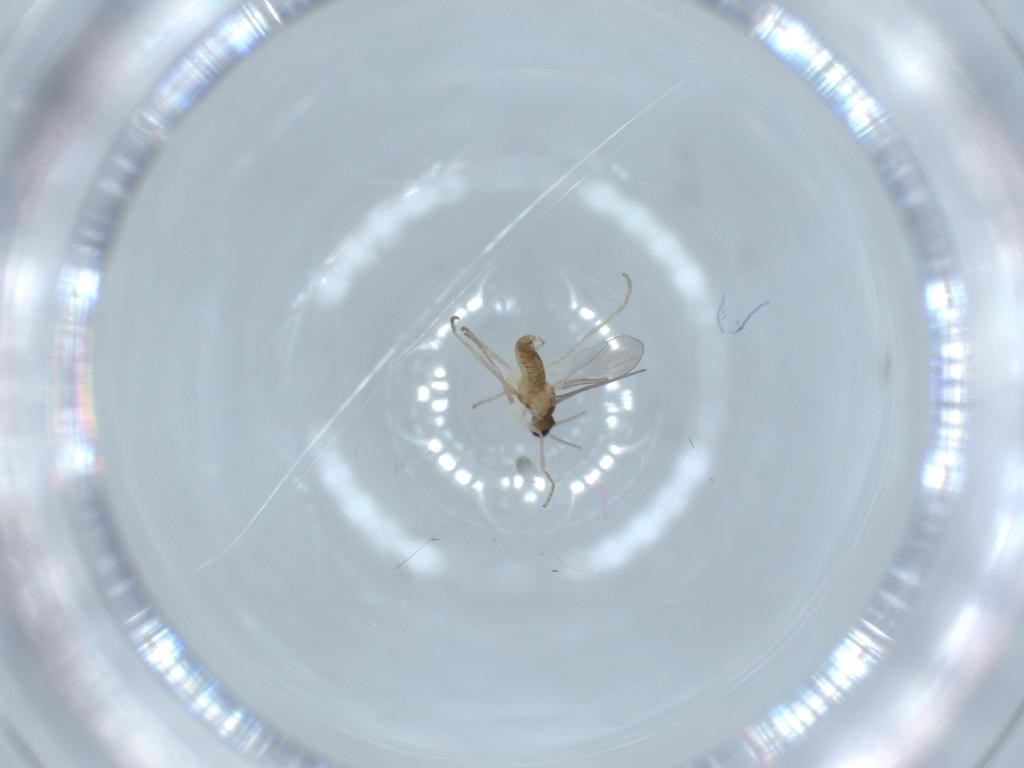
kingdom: Animalia
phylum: Arthropoda
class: Insecta
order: Diptera
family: Cecidomyiidae
